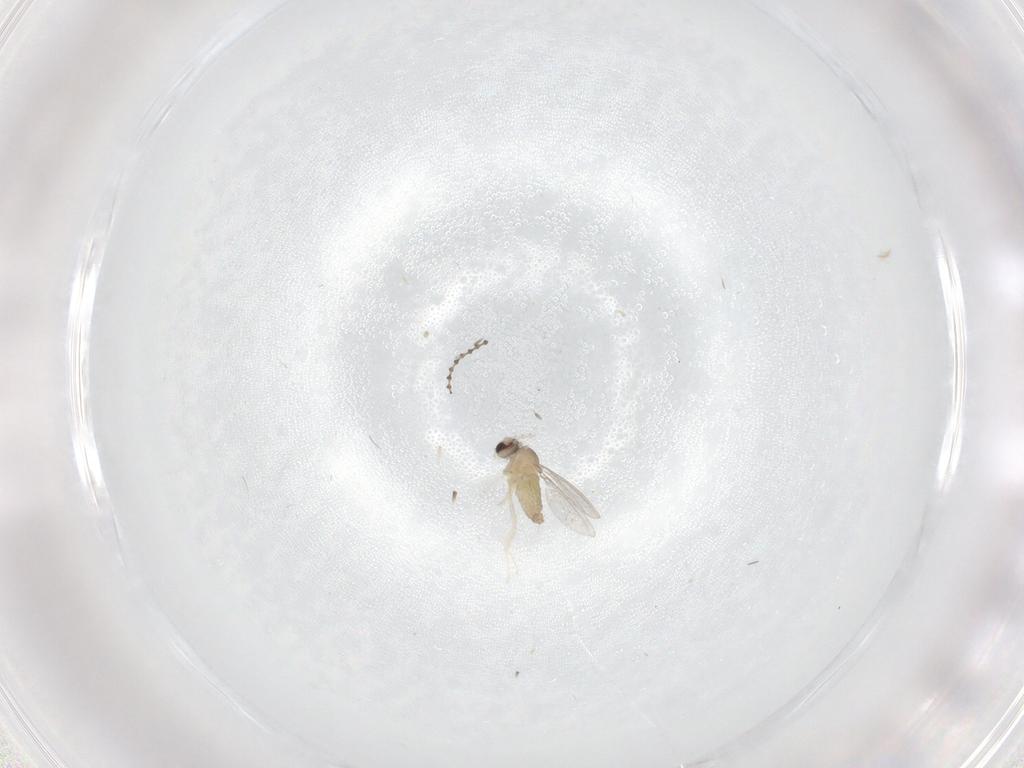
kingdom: Animalia
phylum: Arthropoda
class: Insecta
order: Diptera
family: Cecidomyiidae
